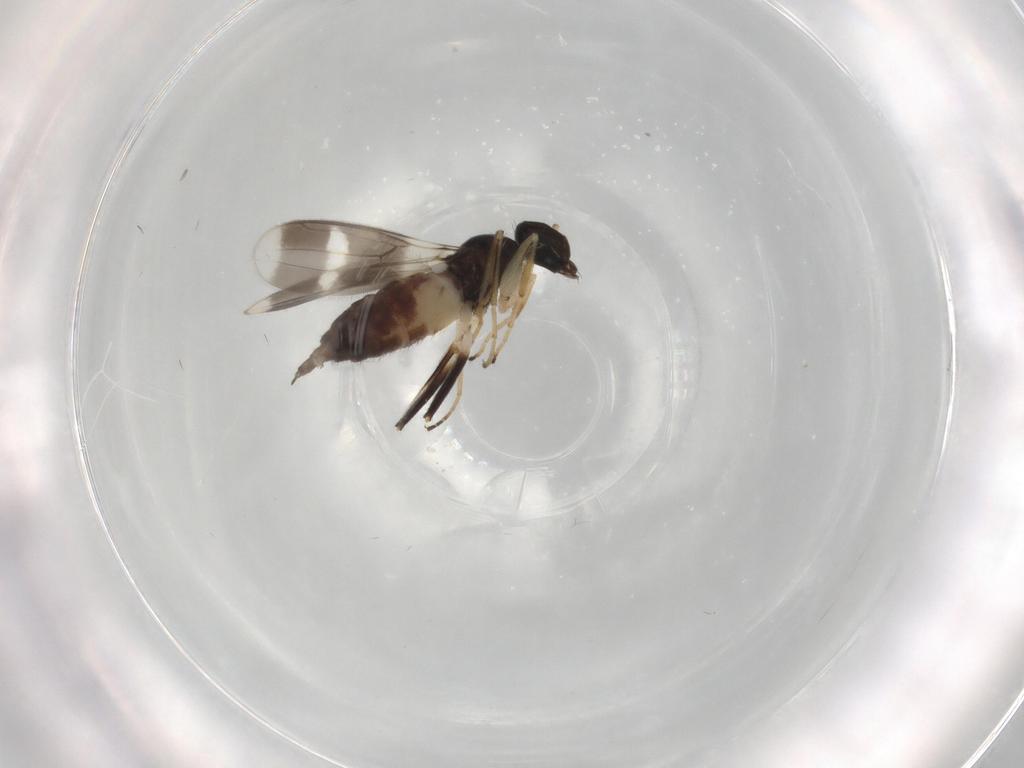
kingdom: Animalia
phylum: Arthropoda
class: Insecta
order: Diptera
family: Hybotidae
